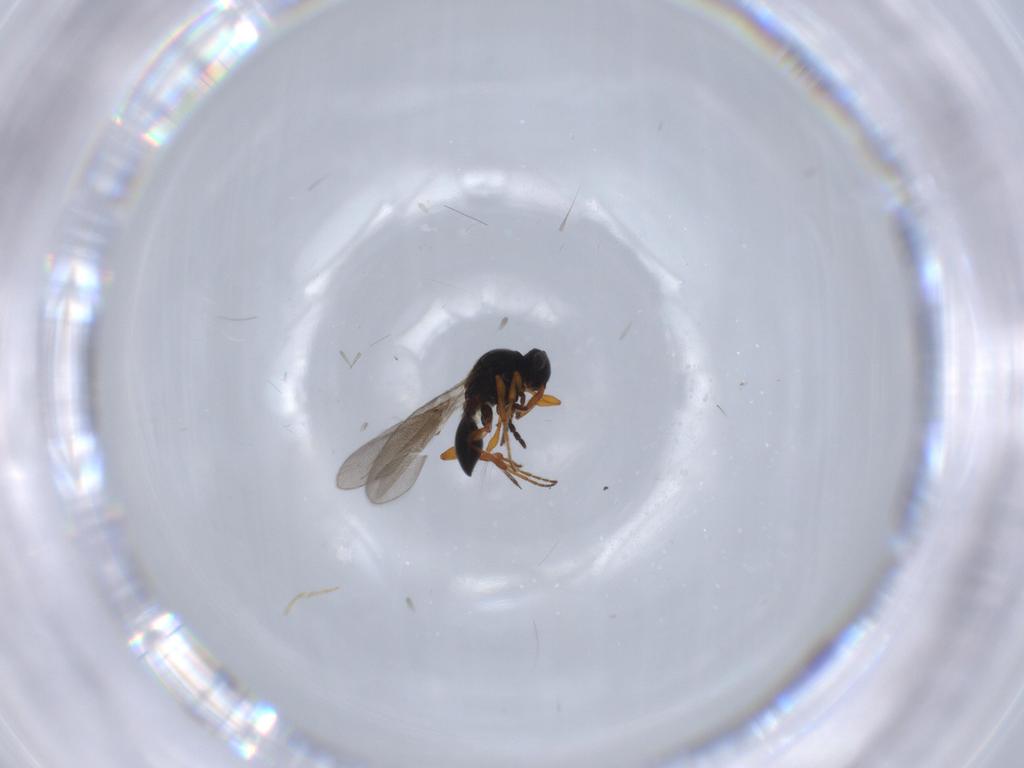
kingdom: Animalia
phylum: Arthropoda
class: Insecta
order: Hymenoptera
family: Platygastridae
